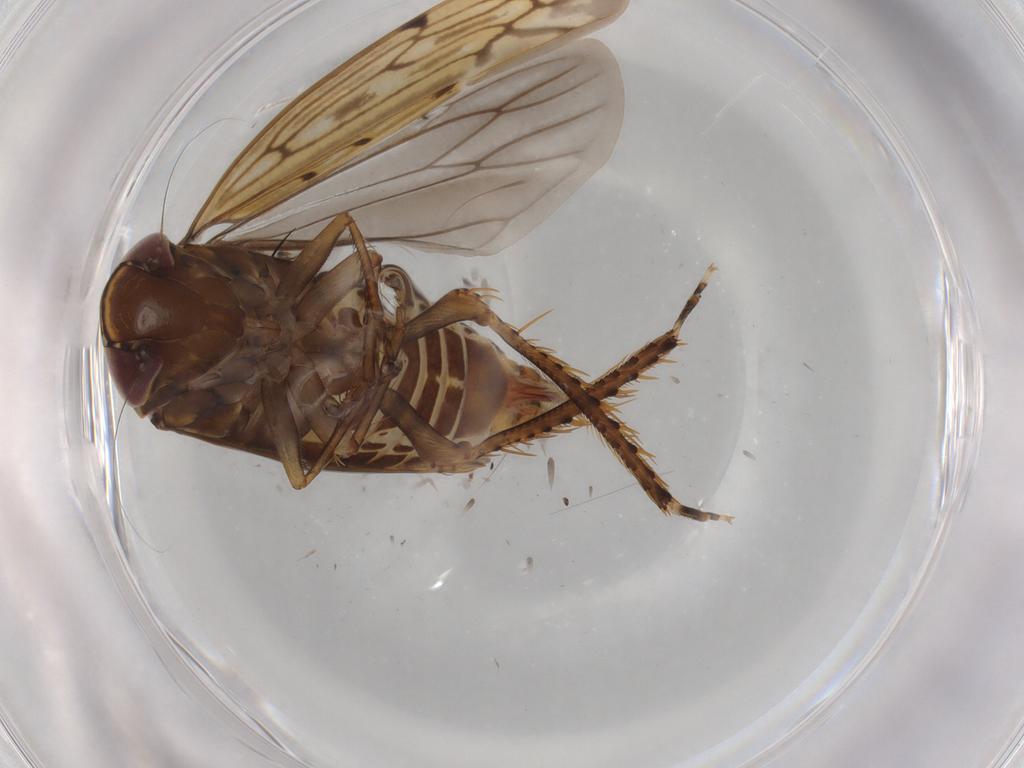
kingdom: Animalia
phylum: Arthropoda
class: Insecta
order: Hemiptera
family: Cicadellidae
